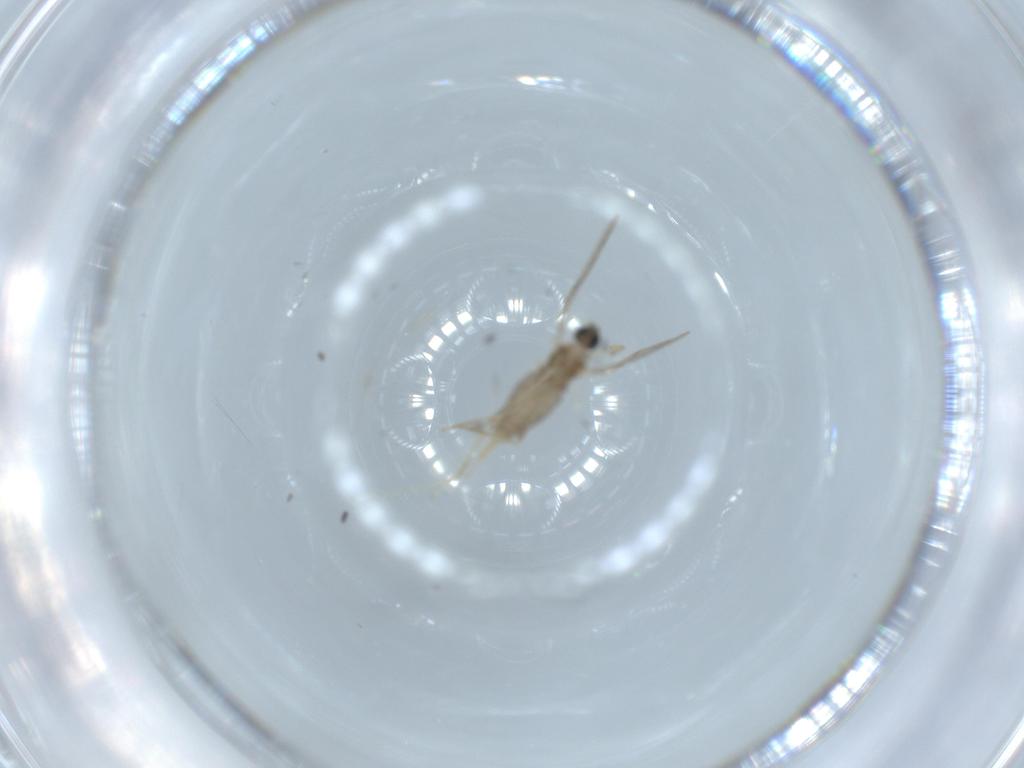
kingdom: Animalia
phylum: Arthropoda
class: Insecta
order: Diptera
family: Cecidomyiidae
